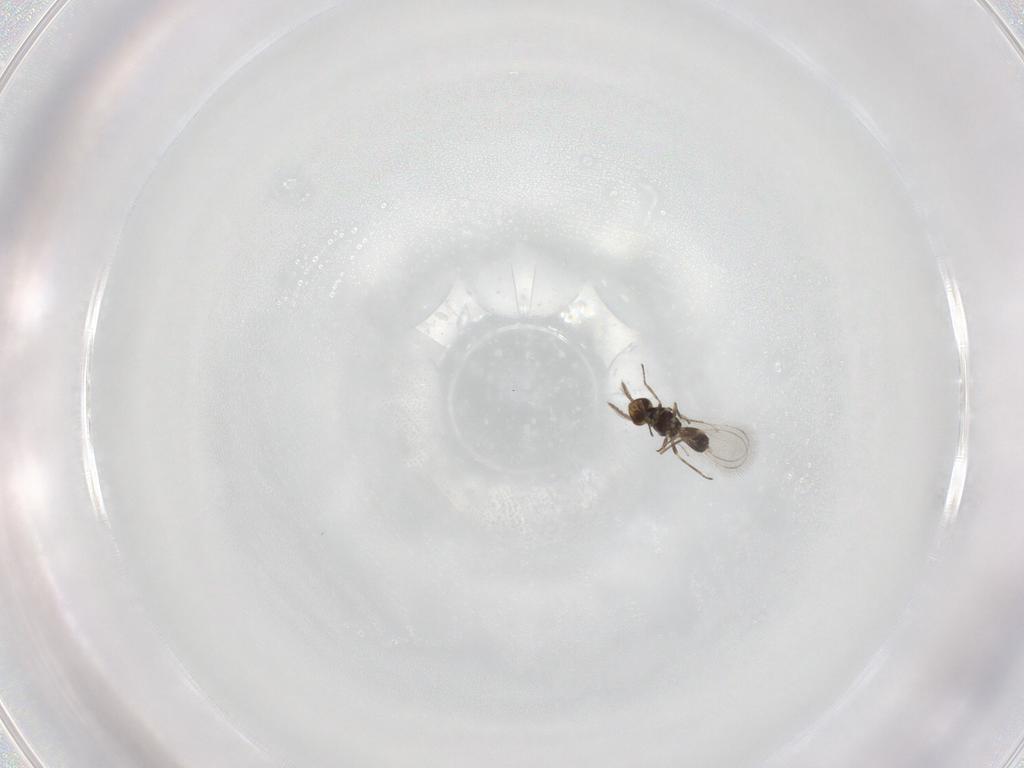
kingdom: Animalia
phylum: Arthropoda
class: Insecta
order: Hymenoptera
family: Eulophidae
